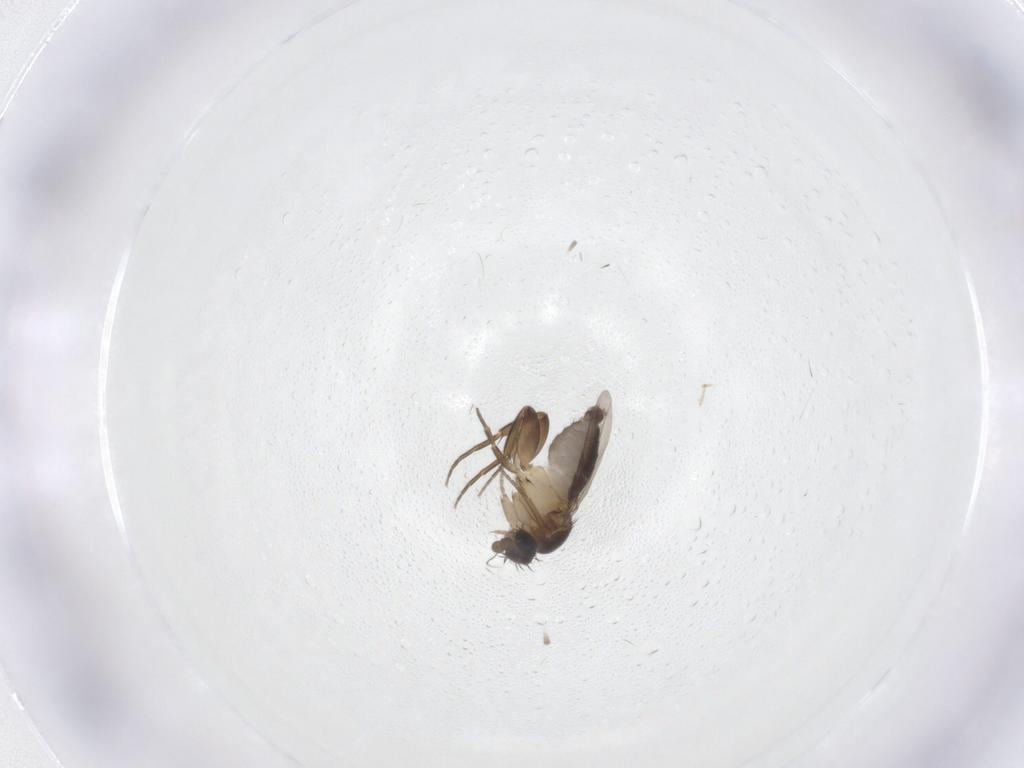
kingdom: Animalia
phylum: Arthropoda
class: Insecta
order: Diptera
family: Phoridae
